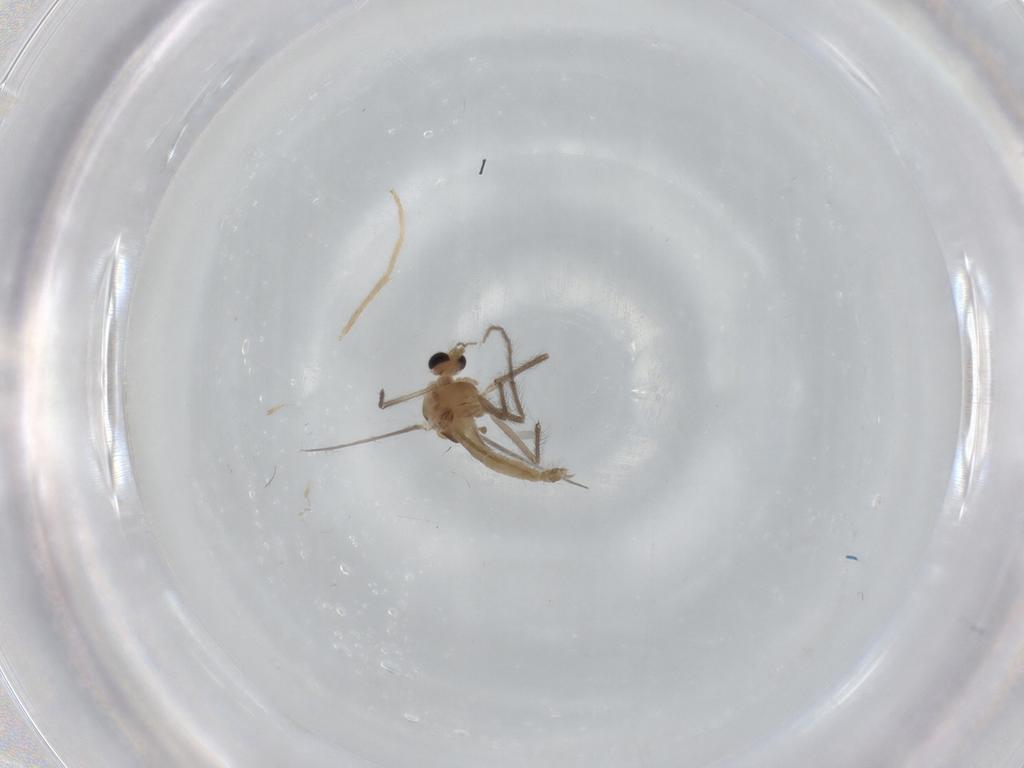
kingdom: Animalia
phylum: Arthropoda
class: Insecta
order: Diptera
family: Chironomidae
